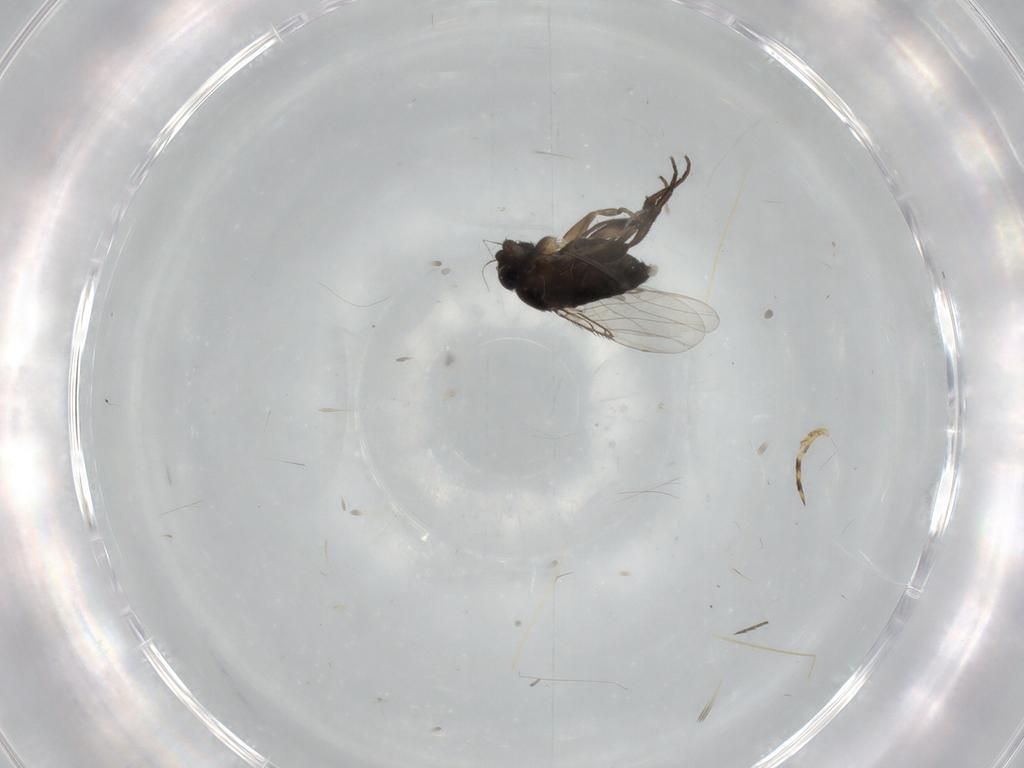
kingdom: Animalia
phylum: Arthropoda
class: Insecta
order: Diptera
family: Phoridae
